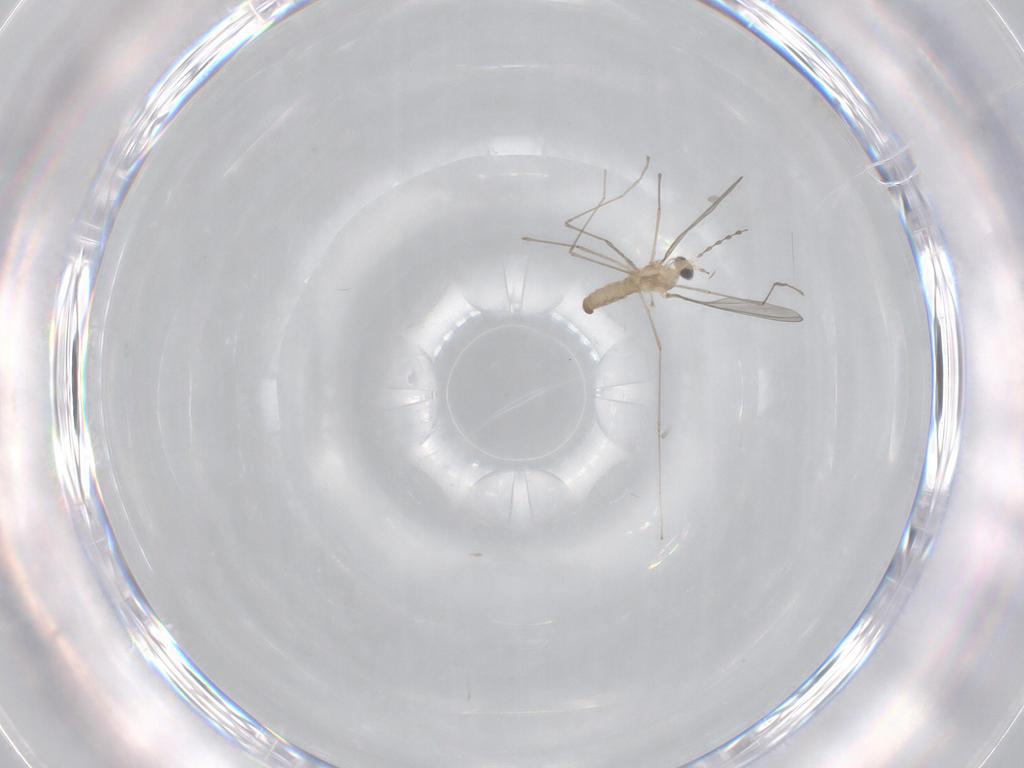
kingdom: Animalia
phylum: Arthropoda
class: Insecta
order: Diptera
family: Cecidomyiidae
